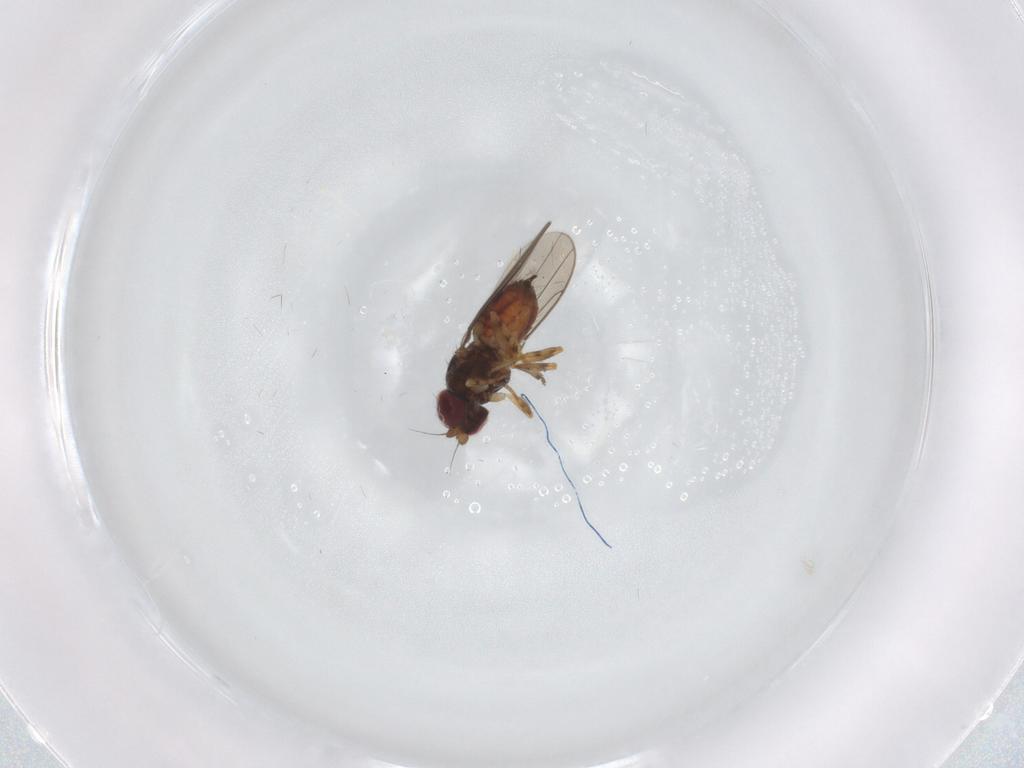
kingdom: Animalia
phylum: Arthropoda
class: Insecta
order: Diptera
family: Chloropidae
